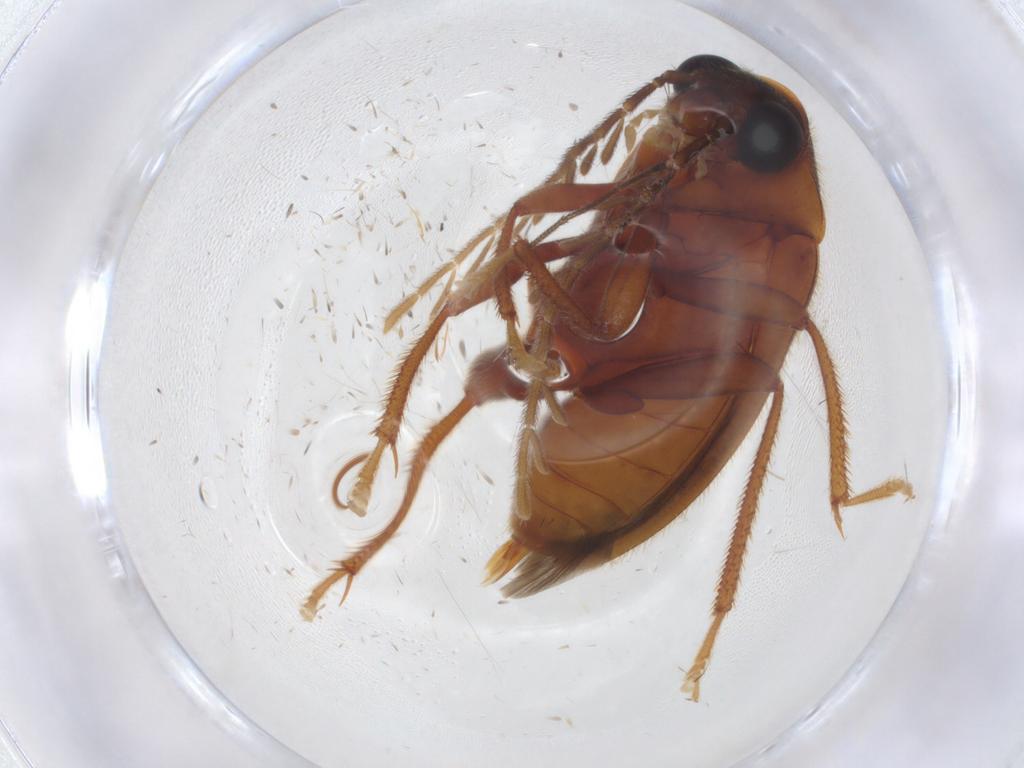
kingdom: Animalia
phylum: Arthropoda
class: Insecta
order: Coleoptera
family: Ptilodactylidae
